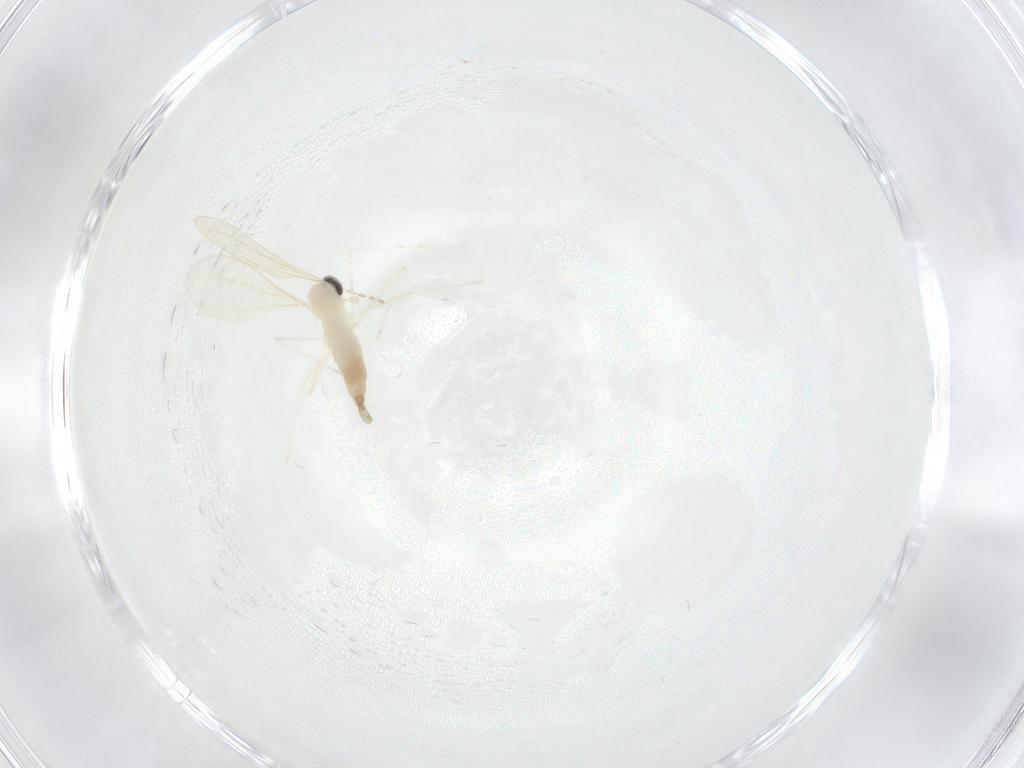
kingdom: Animalia
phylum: Arthropoda
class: Insecta
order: Diptera
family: Cecidomyiidae
